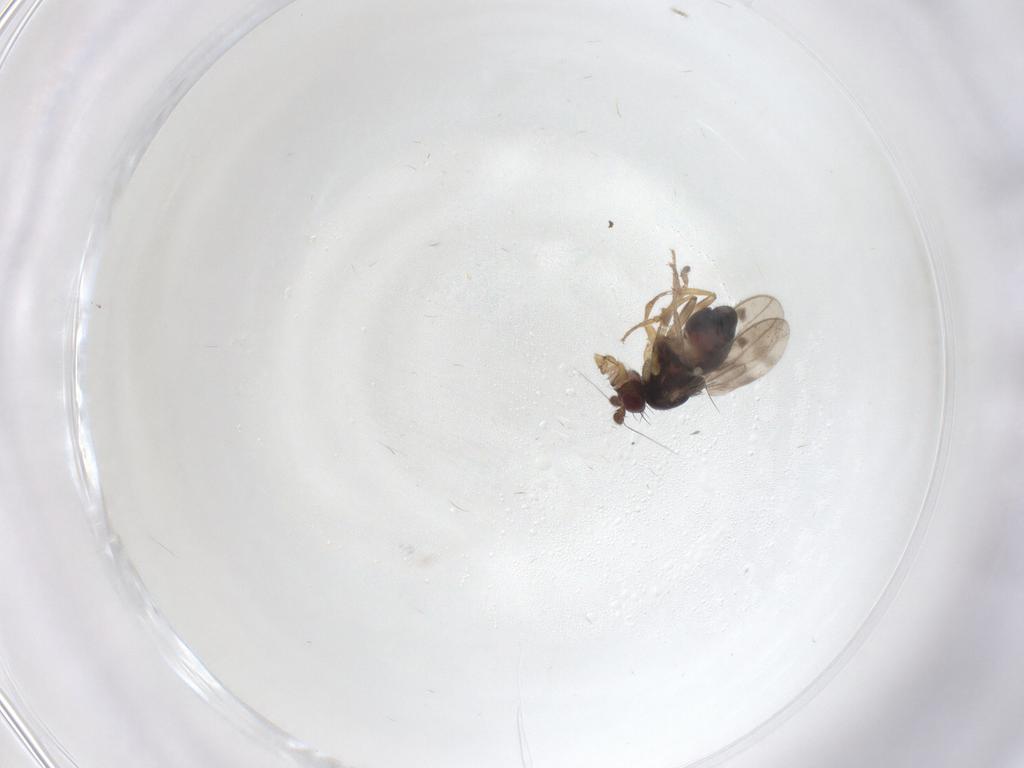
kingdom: Animalia
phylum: Arthropoda
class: Insecta
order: Diptera
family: Sphaeroceridae
